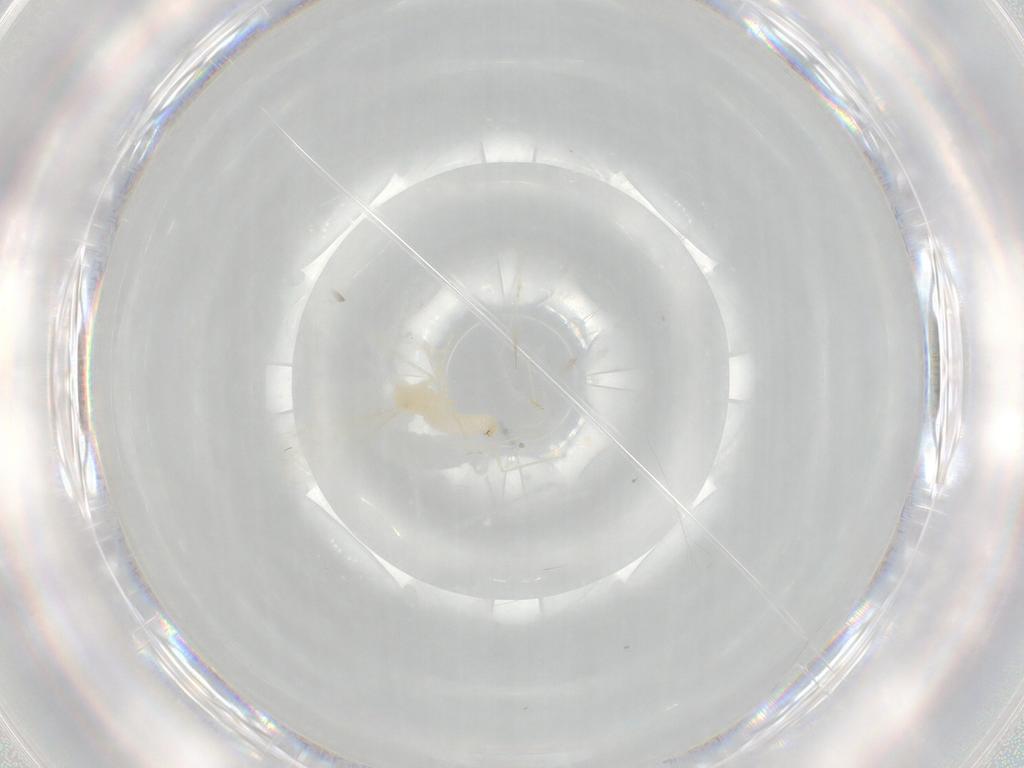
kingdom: Animalia
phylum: Arthropoda
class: Insecta
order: Diptera
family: Cecidomyiidae
